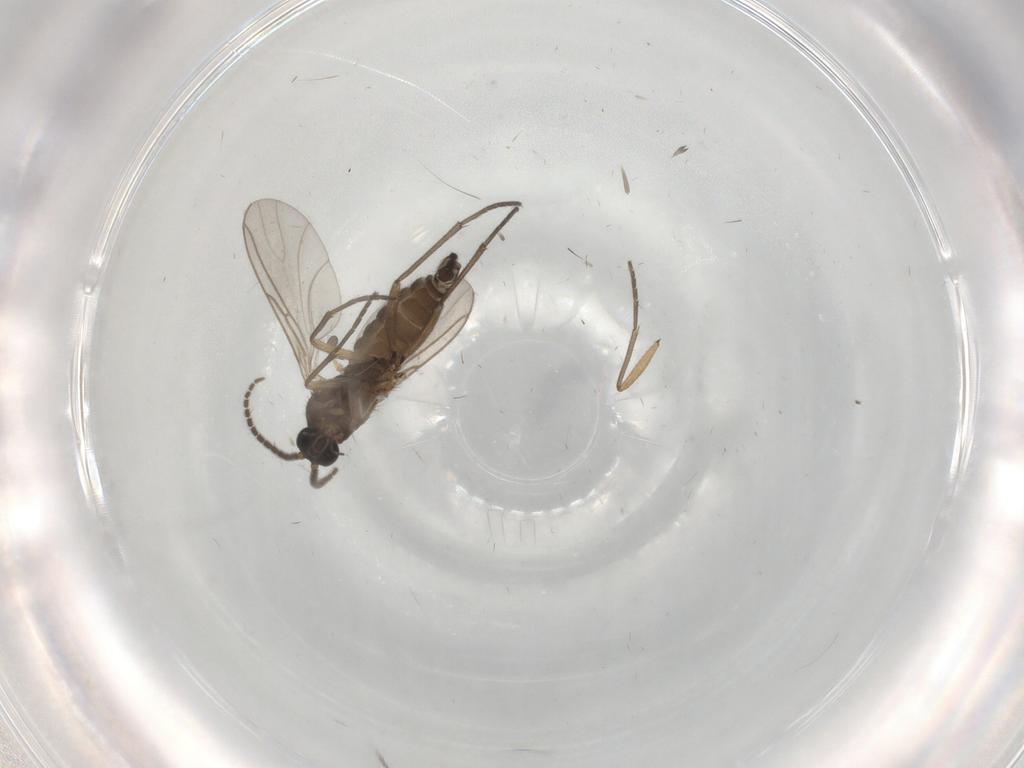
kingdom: Animalia
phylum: Arthropoda
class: Insecta
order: Diptera
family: Sciaridae
